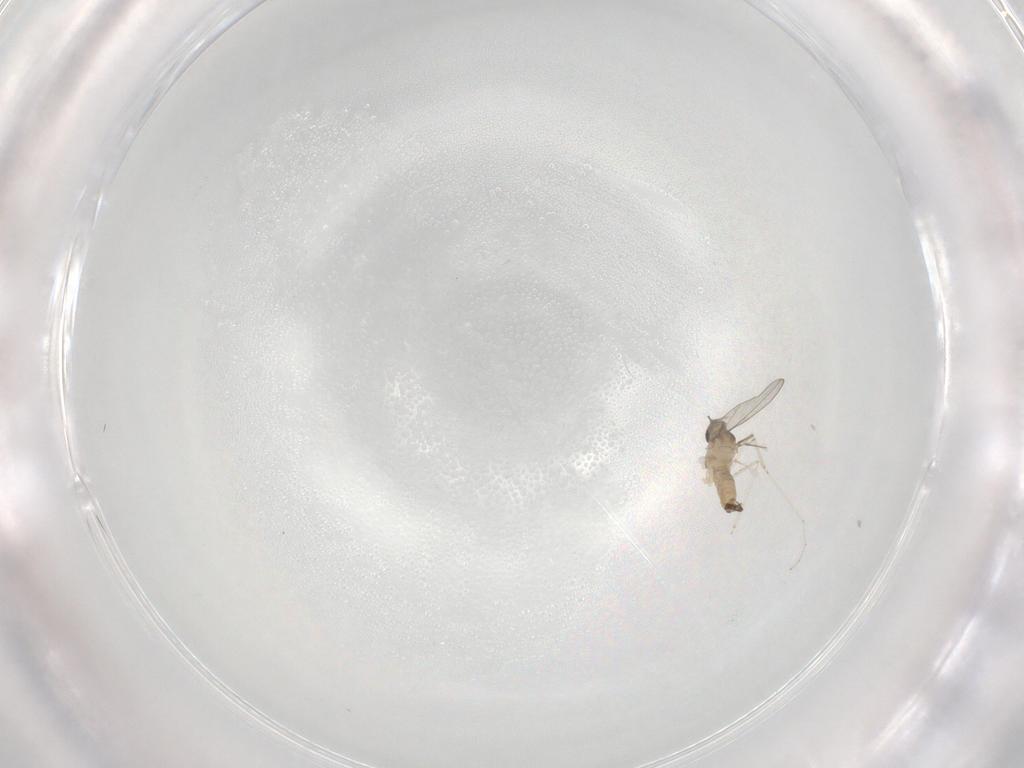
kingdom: Animalia
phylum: Arthropoda
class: Insecta
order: Diptera
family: Cecidomyiidae
